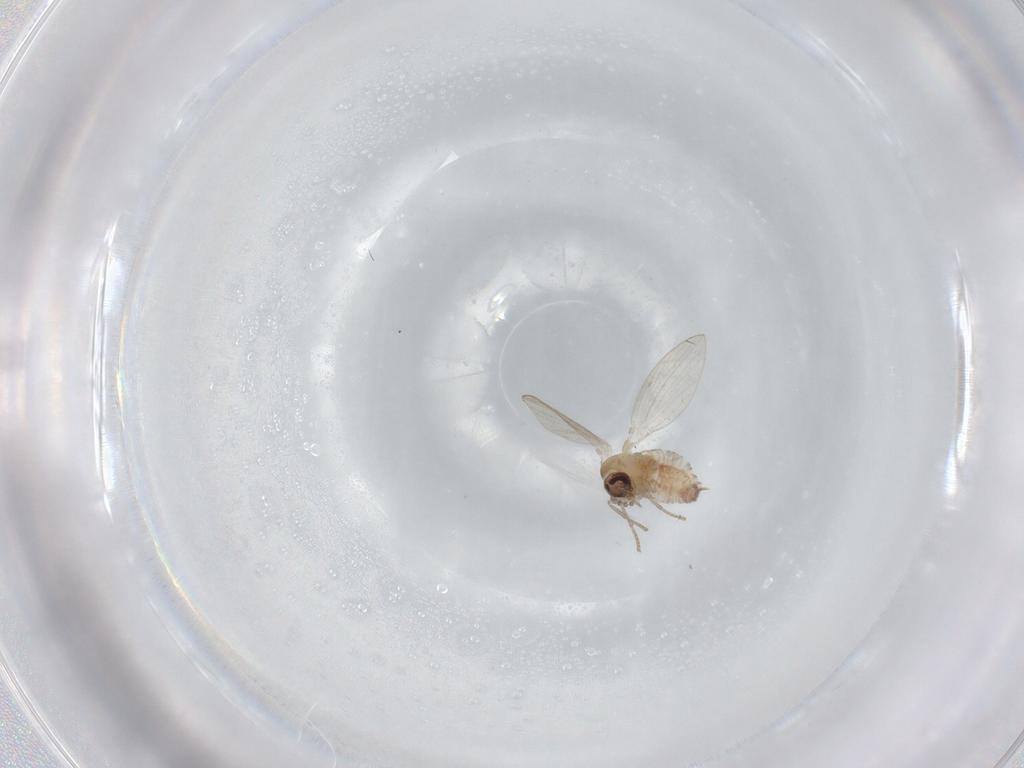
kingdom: Animalia
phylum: Arthropoda
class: Insecta
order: Diptera
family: Psychodidae
